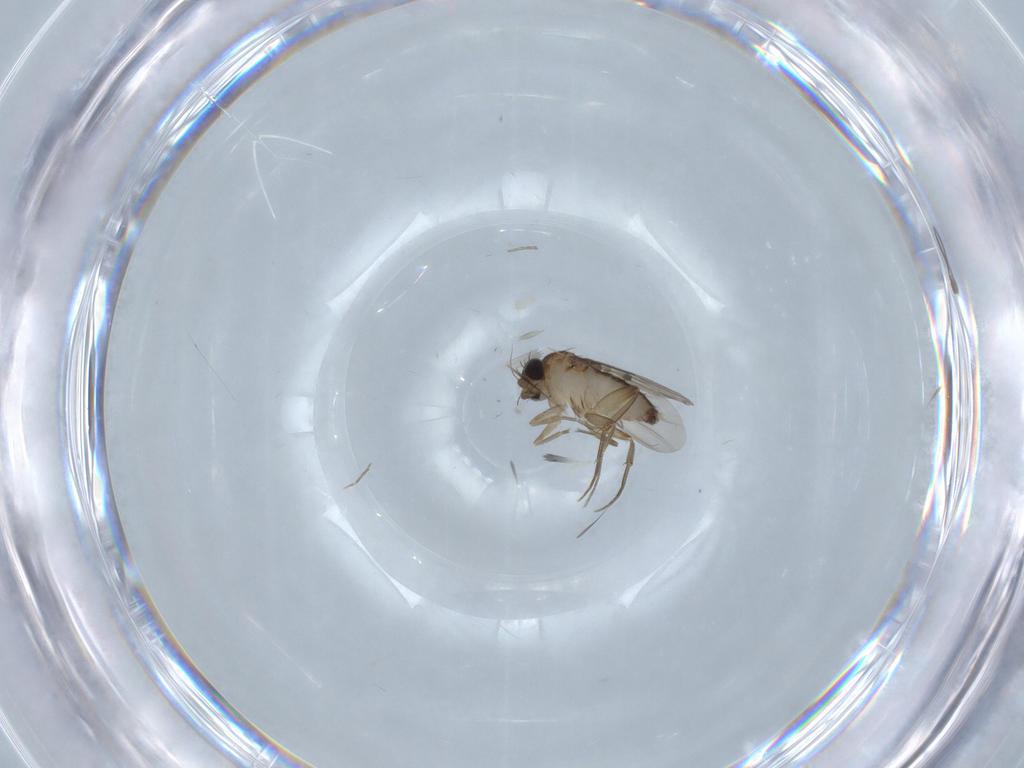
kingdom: Animalia
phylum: Arthropoda
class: Insecta
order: Diptera
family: Phoridae
